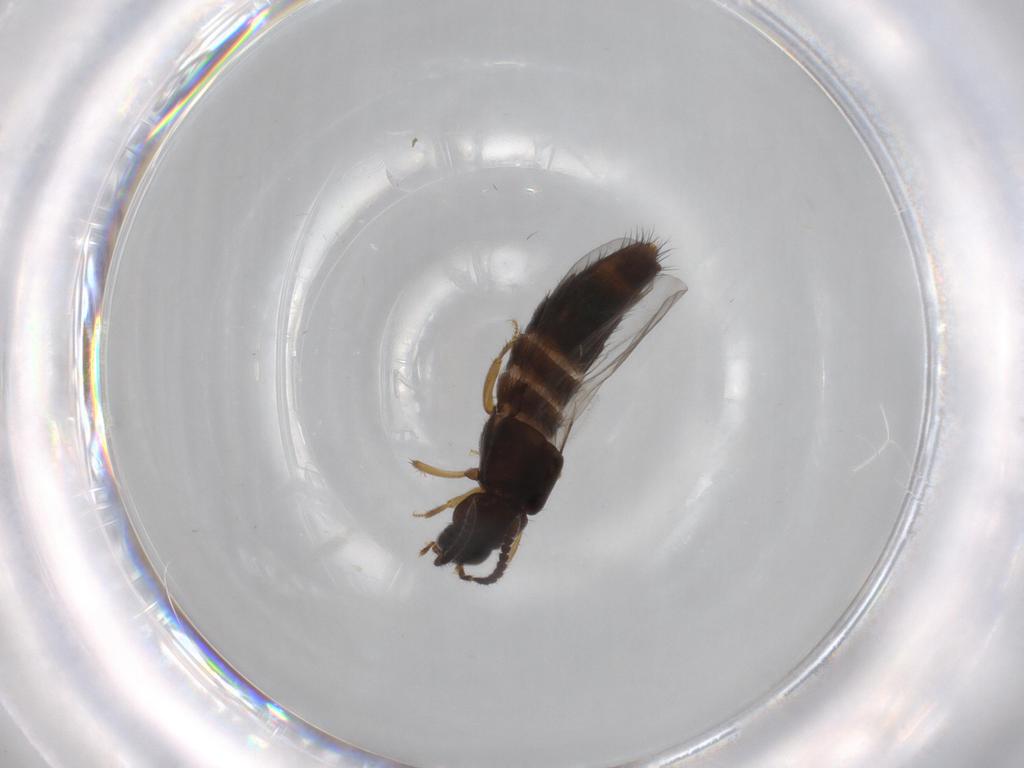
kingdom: Animalia
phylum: Arthropoda
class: Insecta
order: Coleoptera
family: Staphylinidae
